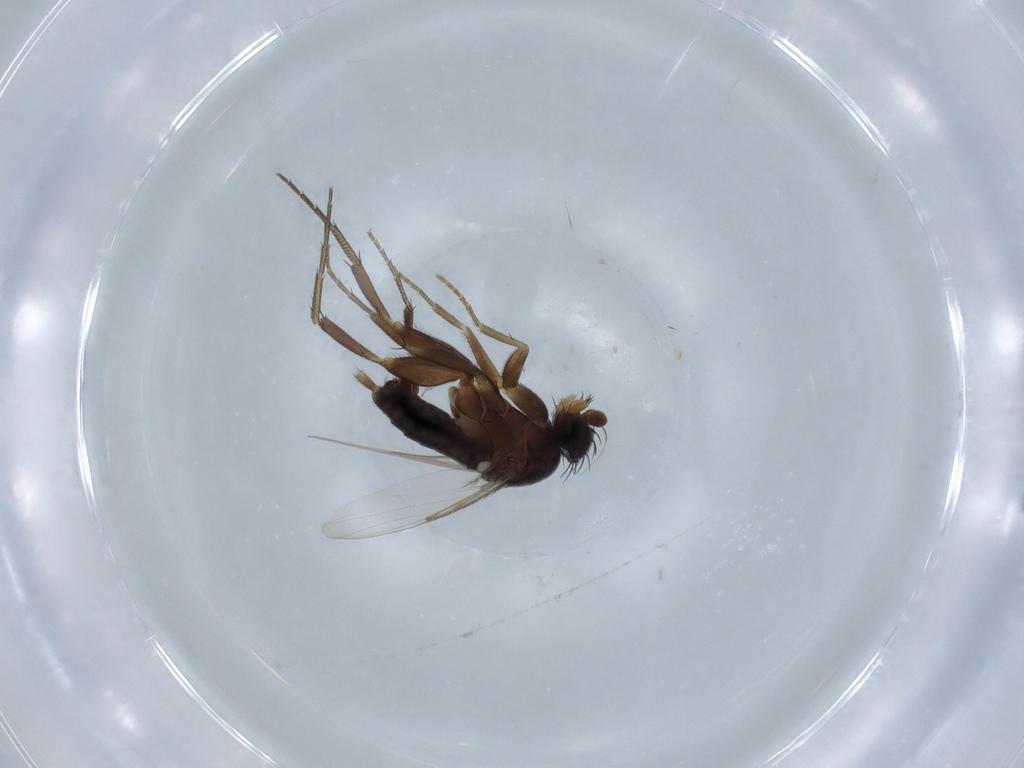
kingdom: Animalia
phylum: Arthropoda
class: Insecta
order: Diptera
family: Phoridae
